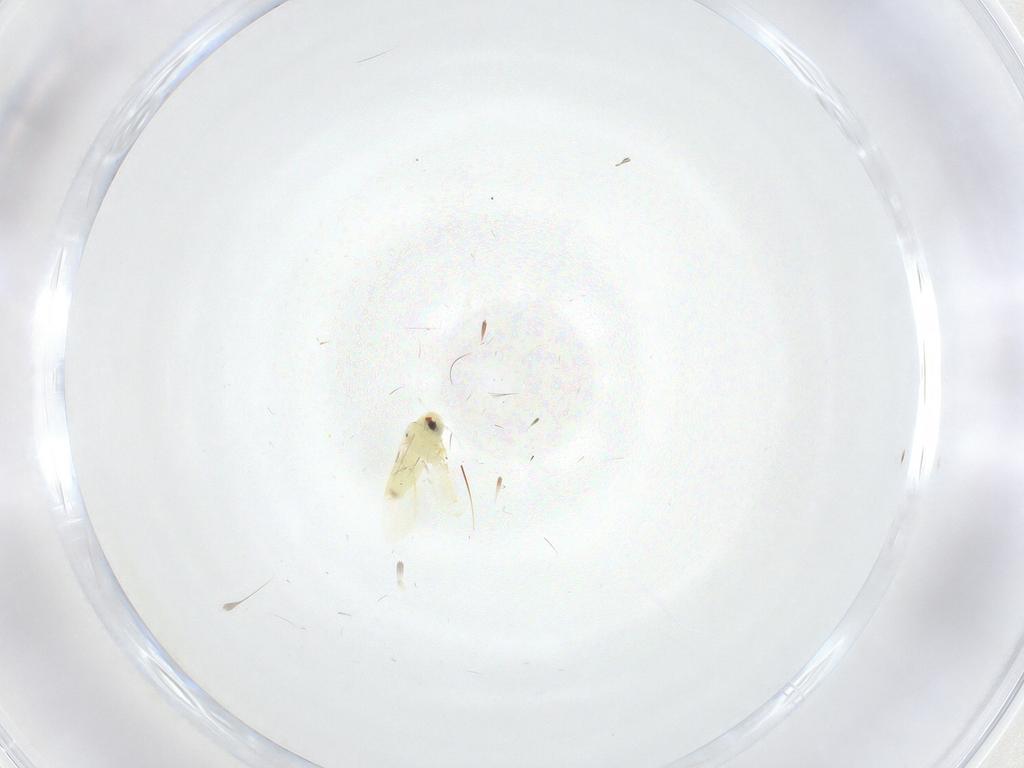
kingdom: Animalia
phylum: Arthropoda
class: Insecta
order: Hemiptera
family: Aleyrodidae
